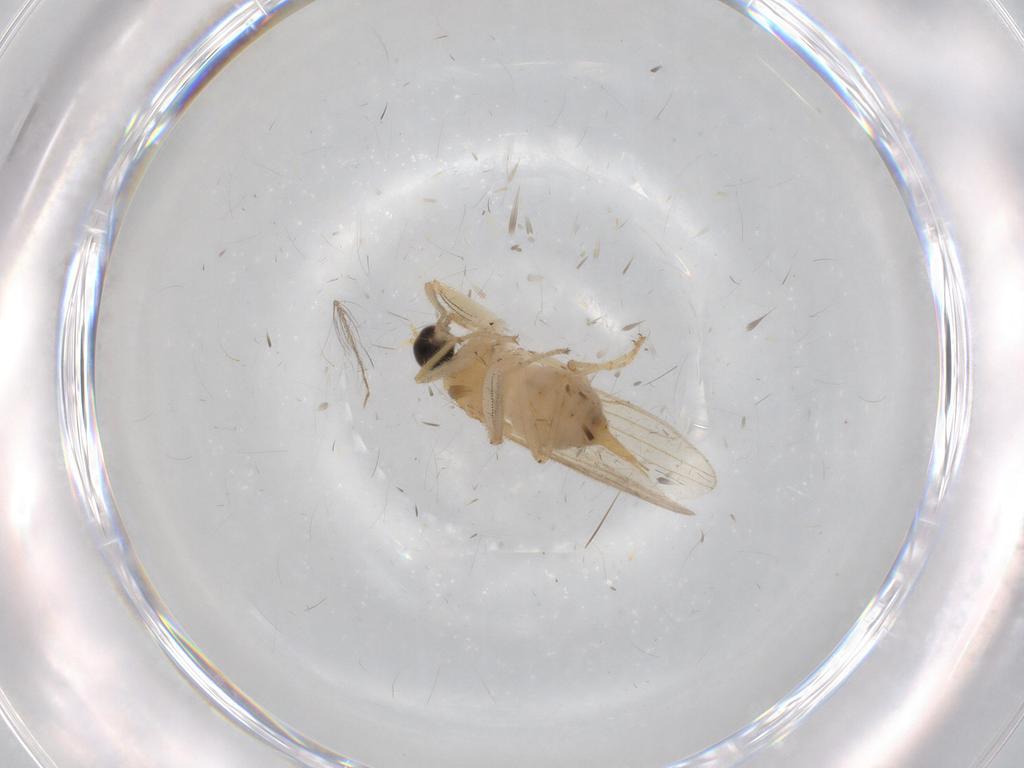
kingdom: Animalia
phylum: Arthropoda
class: Insecta
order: Diptera
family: Ceratopogonidae
